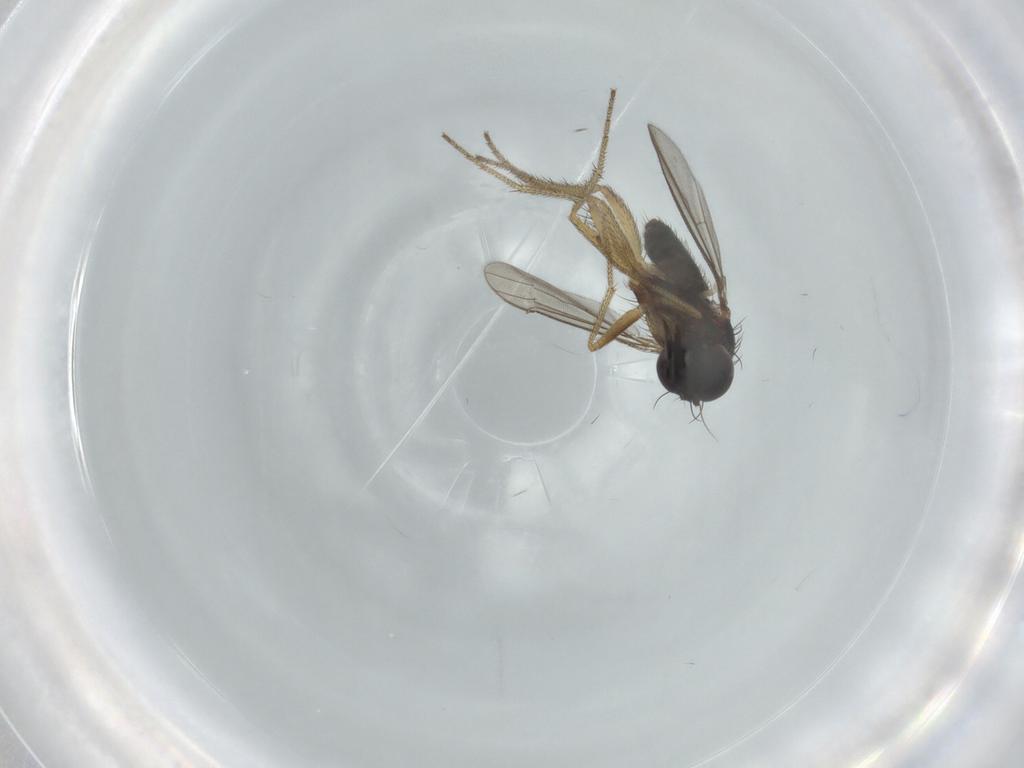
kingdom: Animalia
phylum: Arthropoda
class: Insecta
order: Diptera
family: Dolichopodidae
